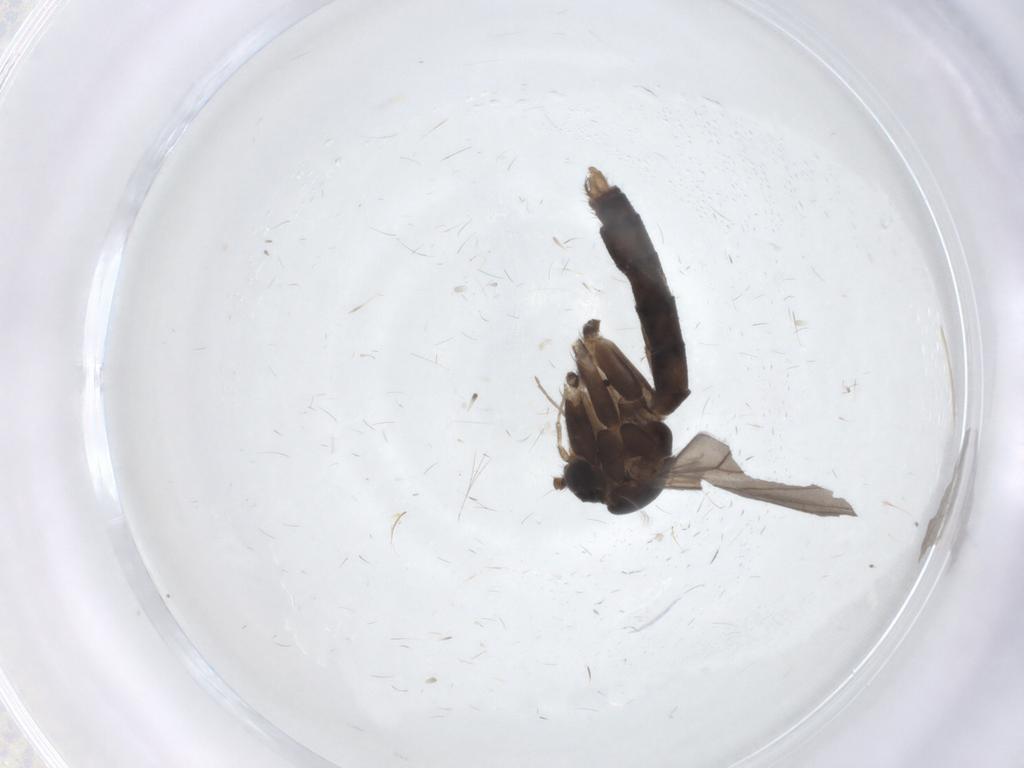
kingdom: Animalia
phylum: Arthropoda
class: Insecta
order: Diptera
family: Mycetophilidae
